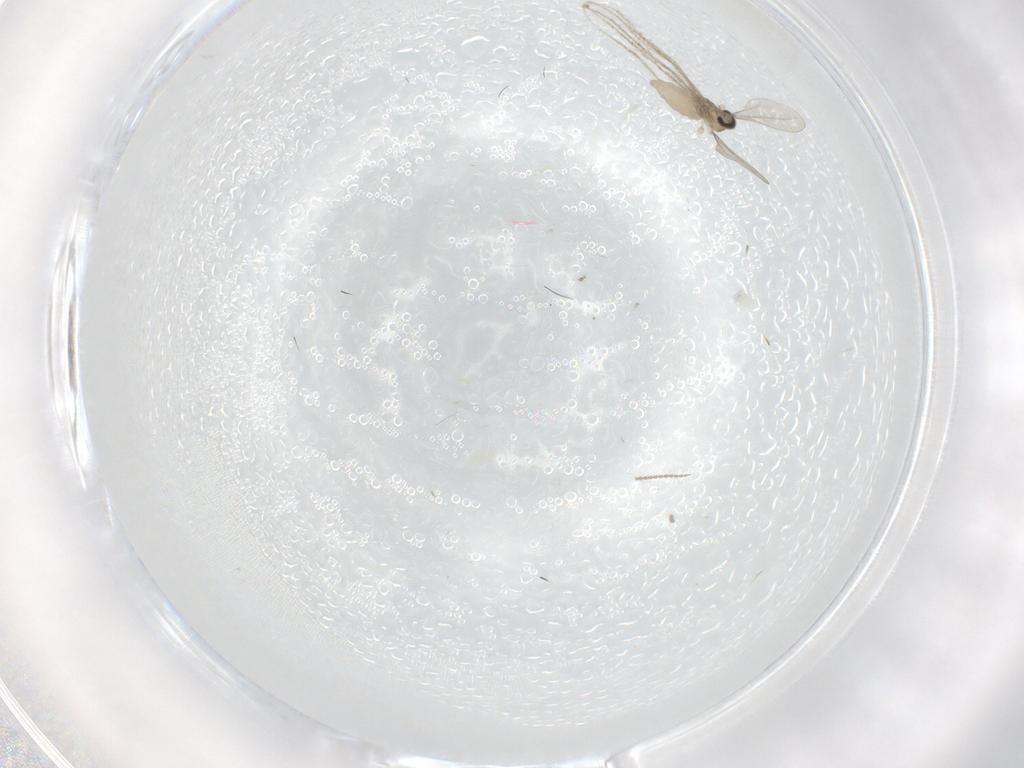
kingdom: Animalia
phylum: Arthropoda
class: Insecta
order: Diptera
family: Cecidomyiidae
